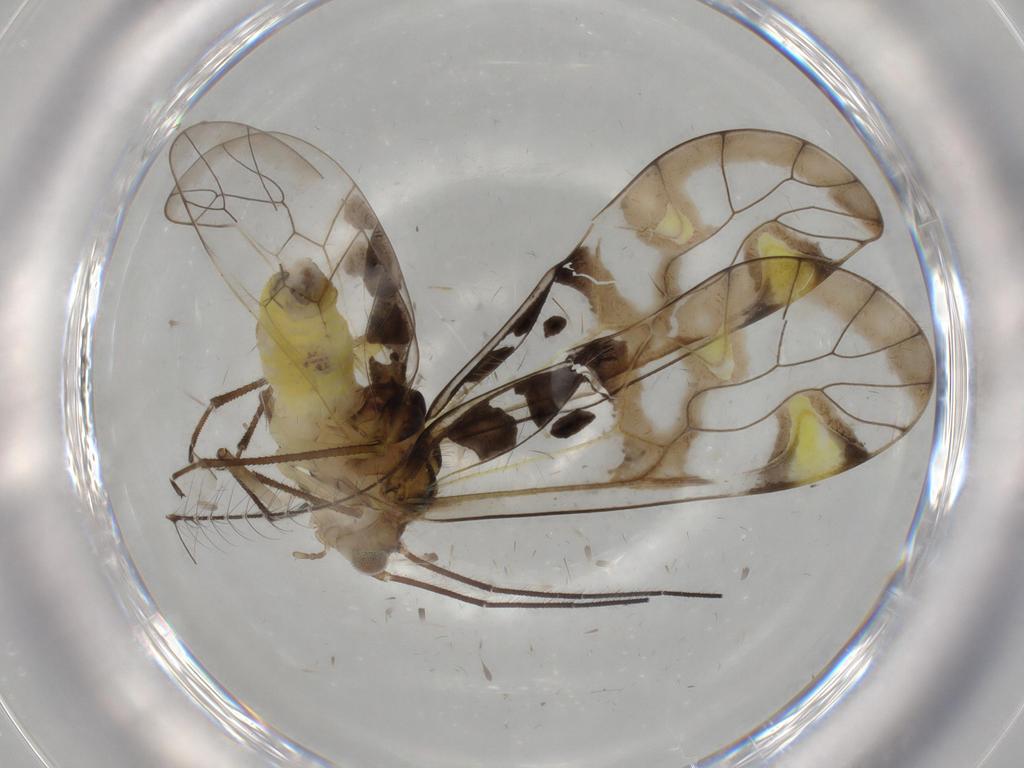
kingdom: Animalia
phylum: Arthropoda
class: Insecta
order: Psocodea
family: Amphipsocidae
